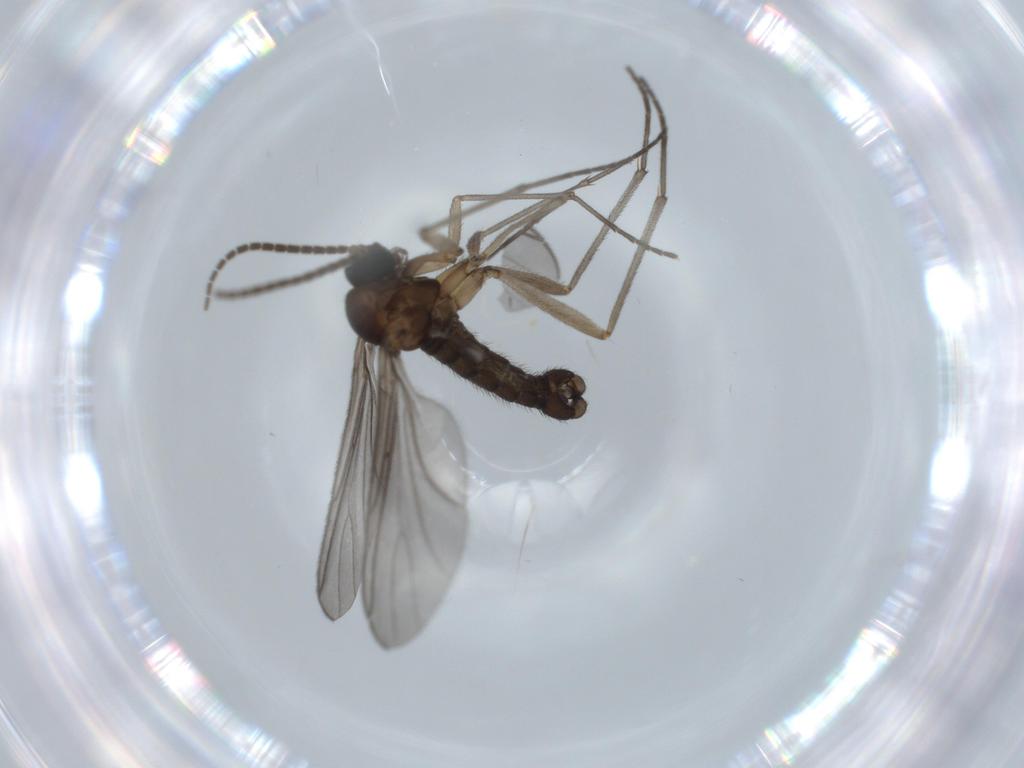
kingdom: Animalia
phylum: Arthropoda
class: Insecta
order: Diptera
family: Sciaridae
